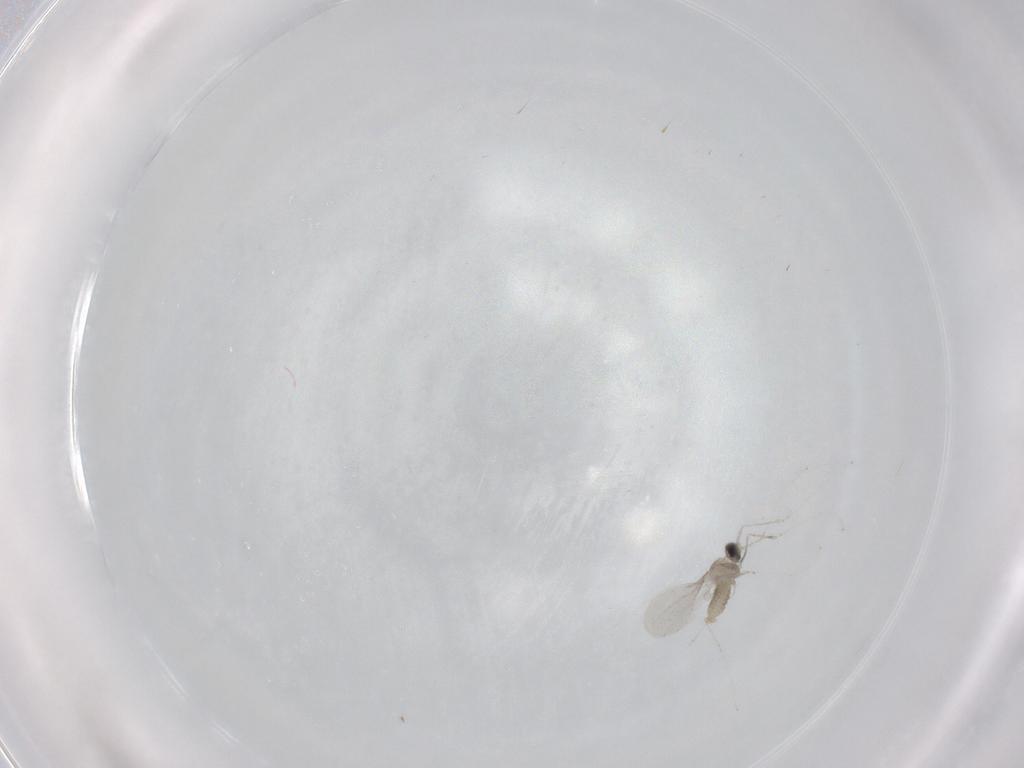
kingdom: Animalia
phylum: Arthropoda
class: Insecta
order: Diptera
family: Cecidomyiidae
